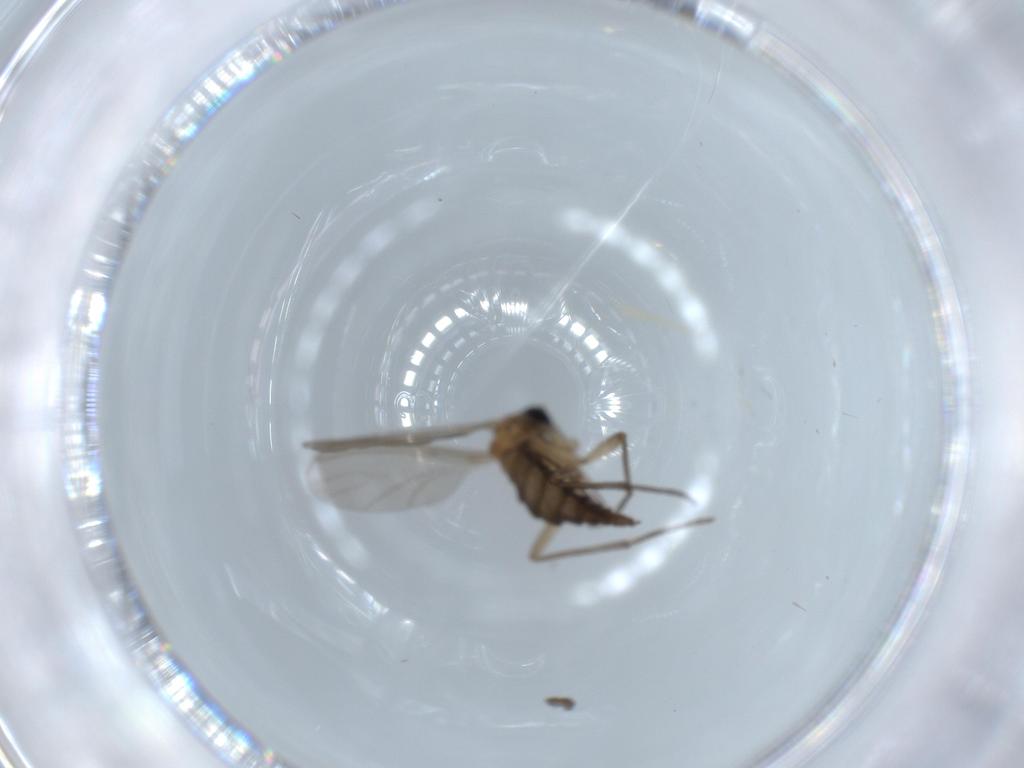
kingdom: Animalia
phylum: Arthropoda
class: Insecta
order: Diptera
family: Sciaridae
